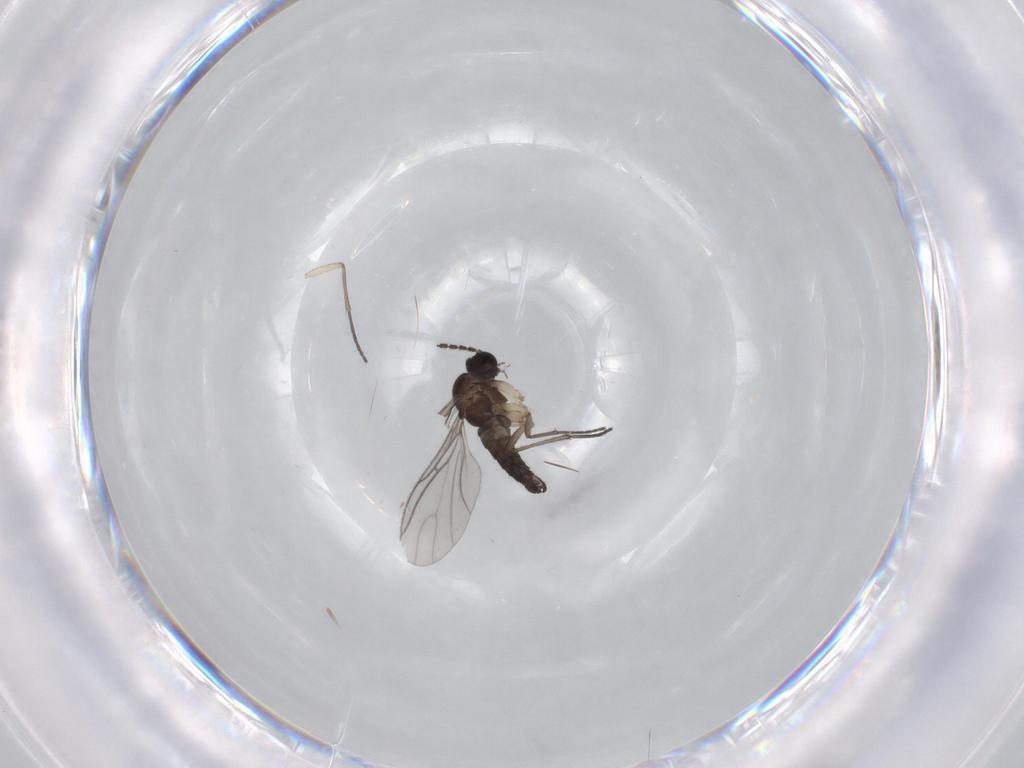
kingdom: Animalia
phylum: Arthropoda
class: Insecta
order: Diptera
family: Sciaridae
